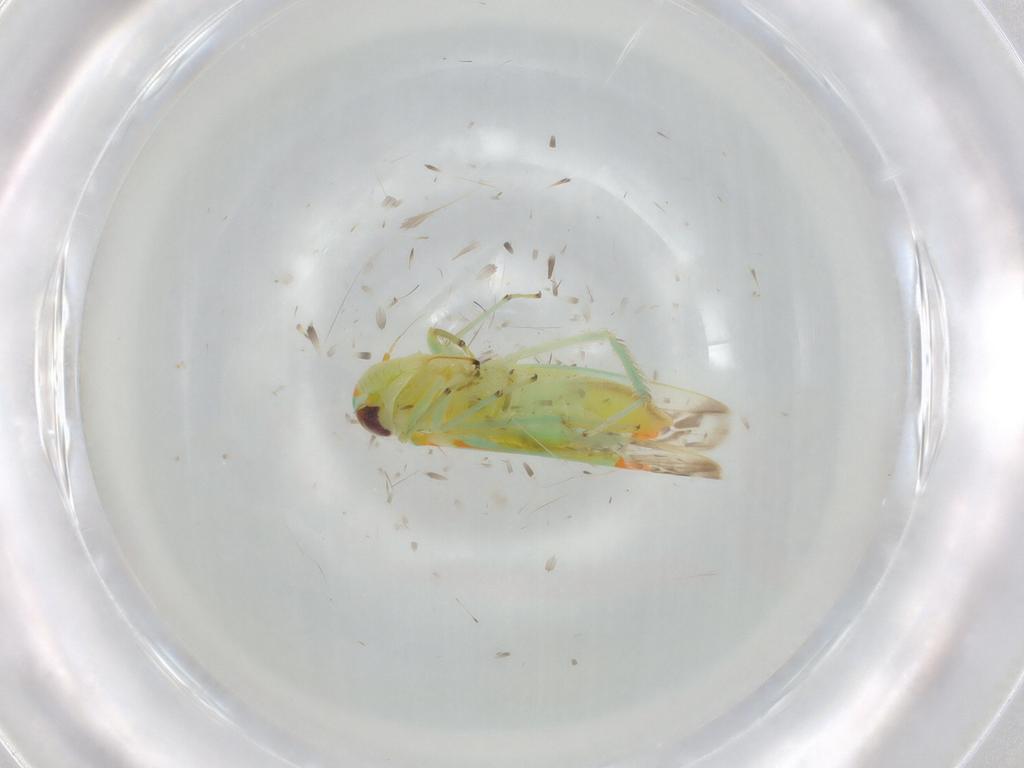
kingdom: Animalia
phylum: Arthropoda
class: Insecta
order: Hemiptera
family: Cicadellidae
